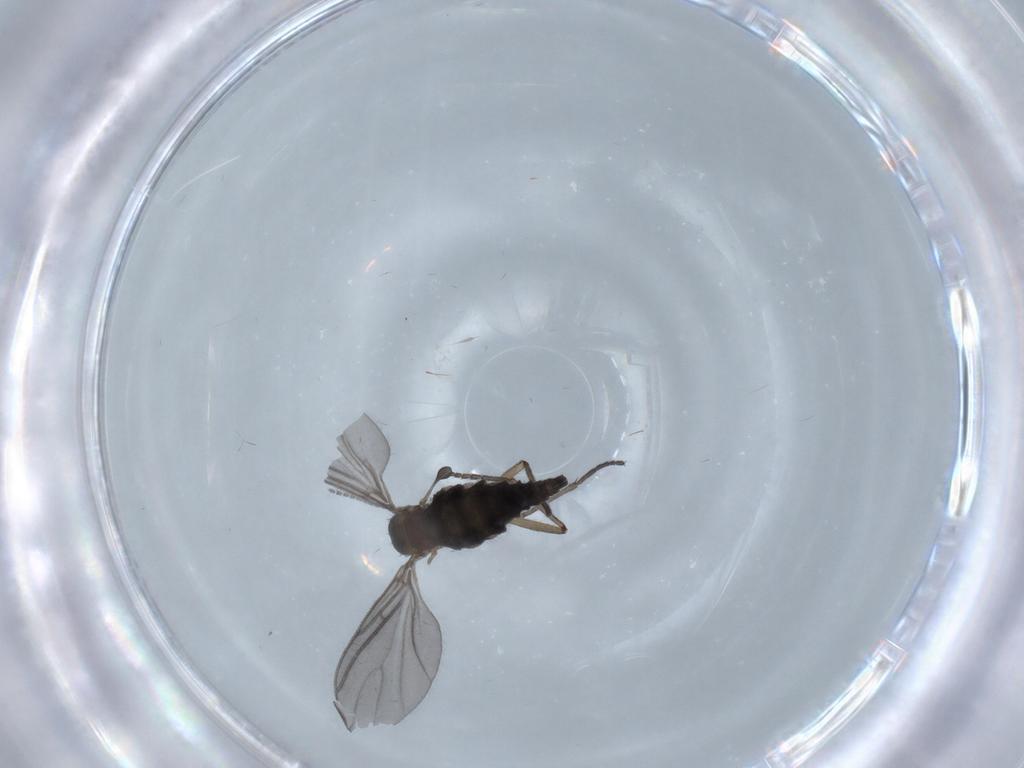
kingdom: Animalia
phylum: Arthropoda
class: Insecta
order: Diptera
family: Sciaridae
